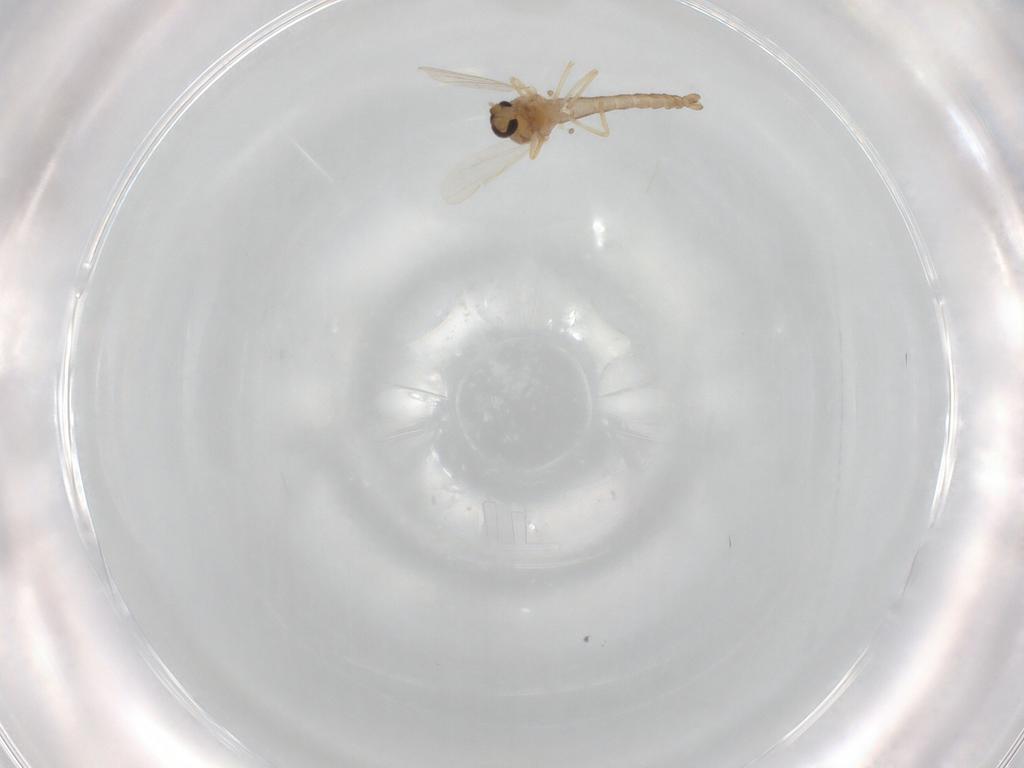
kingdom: Animalia
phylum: Arthropoda
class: Insecta
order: Diptera
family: Ceratopogonidae
